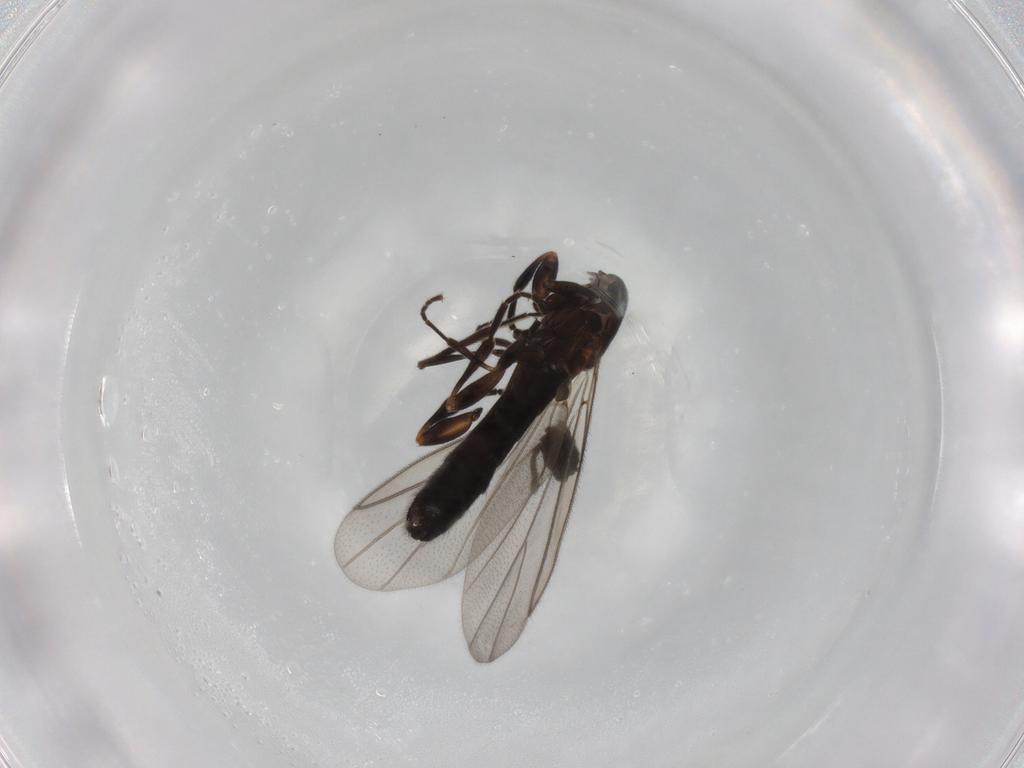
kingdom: Animalia
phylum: Arthropoda
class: Insecta
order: Diptera
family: Scatopsidae
